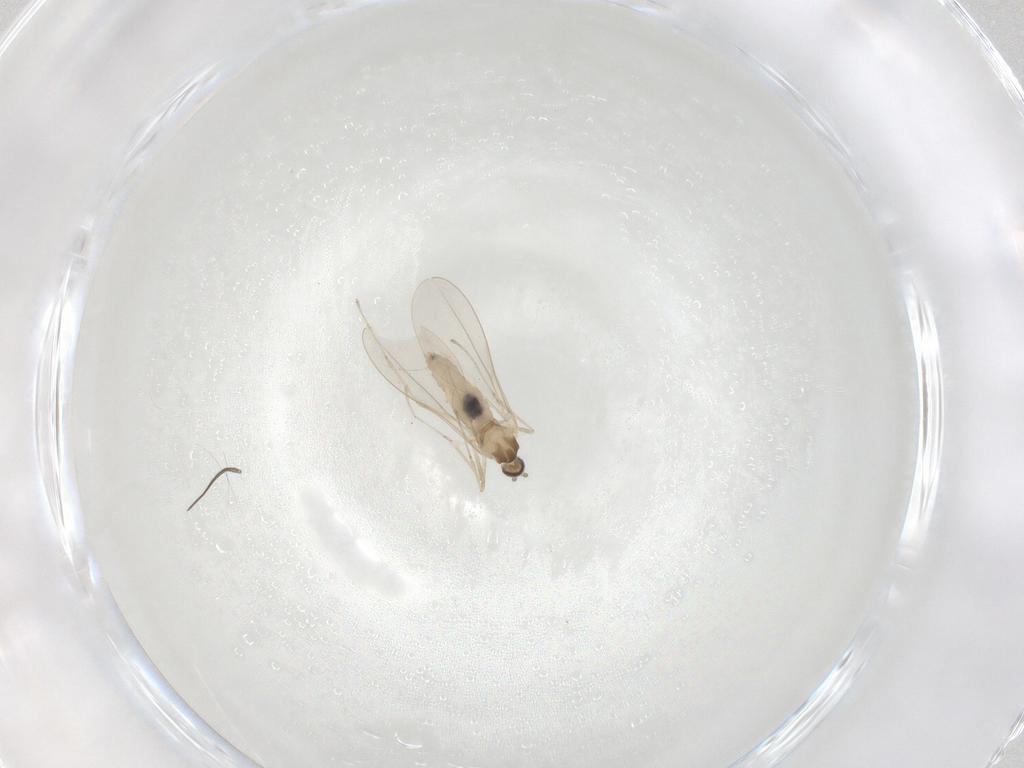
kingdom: Animalia
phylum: Arthropoda
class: Insecta
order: Diptera
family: Cecidomyiidae
